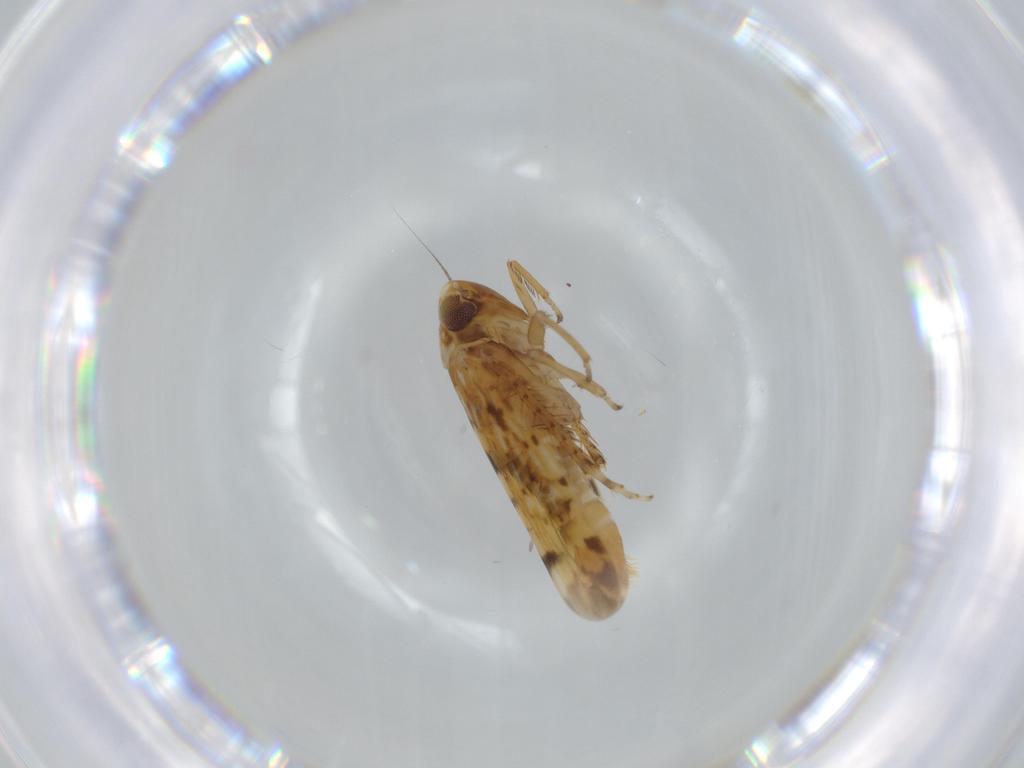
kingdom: Animalia
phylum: Arthropoda
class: Insecta
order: Hemiptera
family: Cicadellidae
